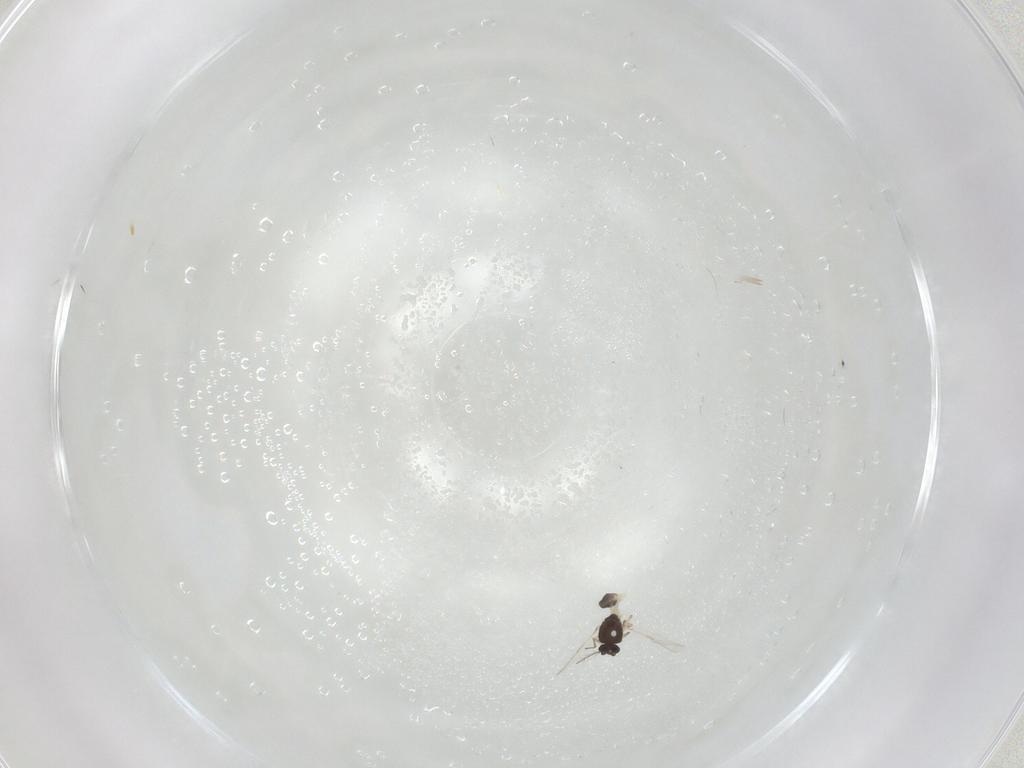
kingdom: Animalia
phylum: Arthropoda
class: Insecta
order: Diptera
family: Ceratopogonidae
